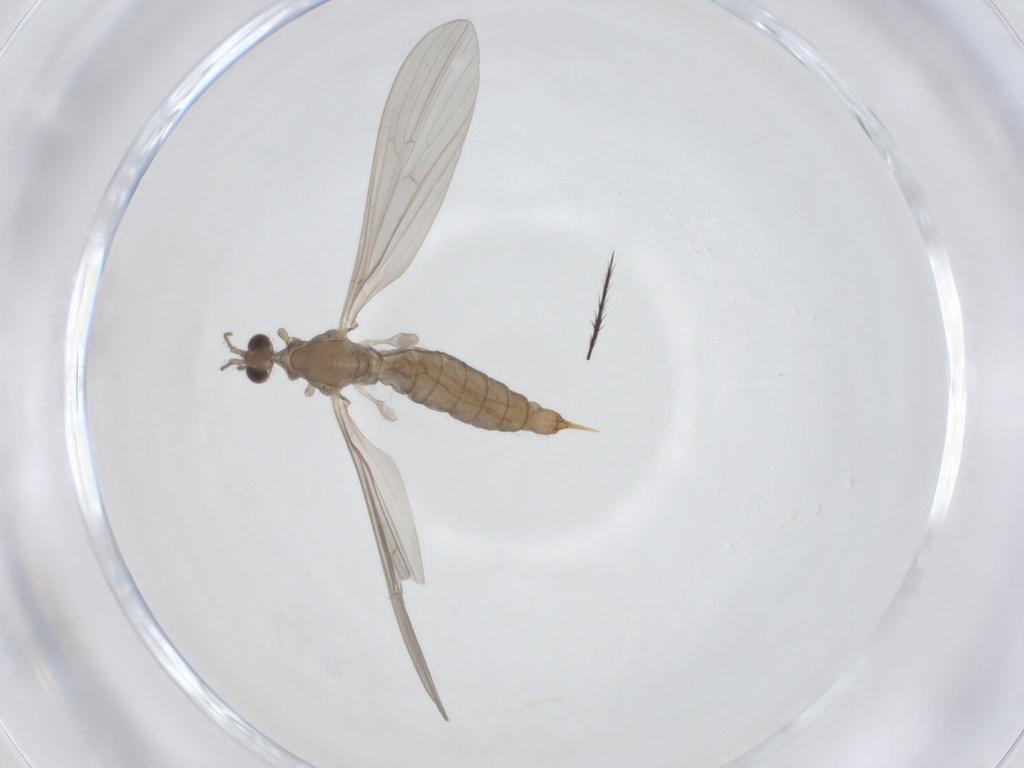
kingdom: Animalia
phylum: Arthropoda
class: Insecta
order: Diptera
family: Limoniidae
